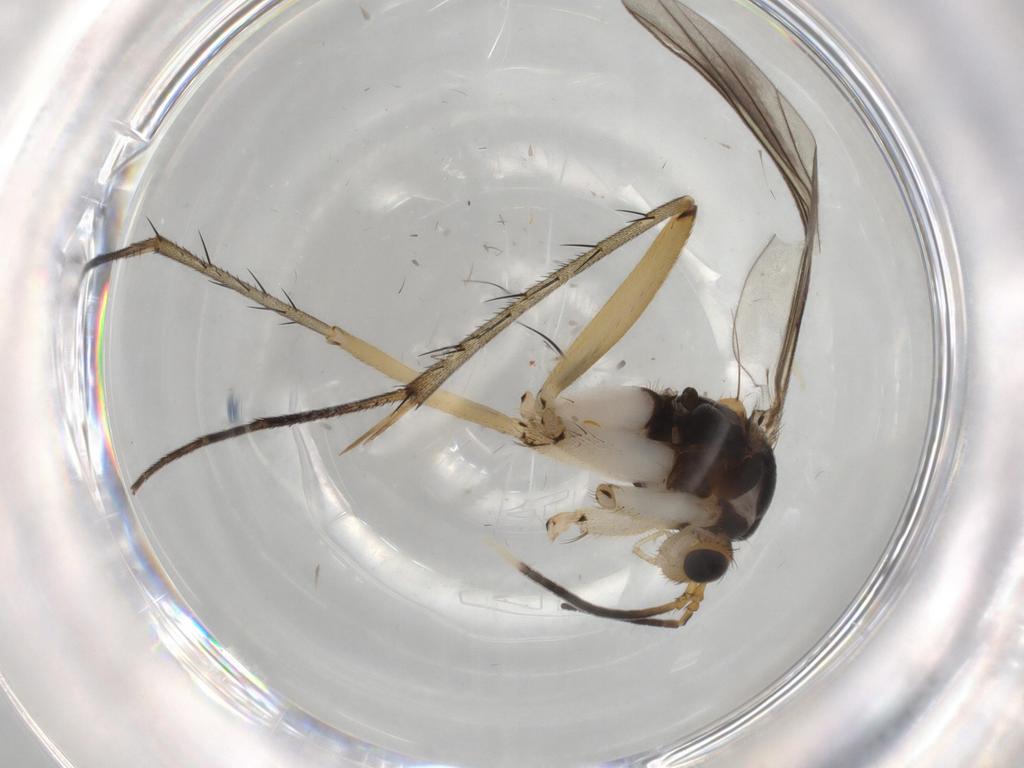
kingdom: Animalia
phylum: Arthropoda
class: Insecta
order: Diptera
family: Mycetophilidae
